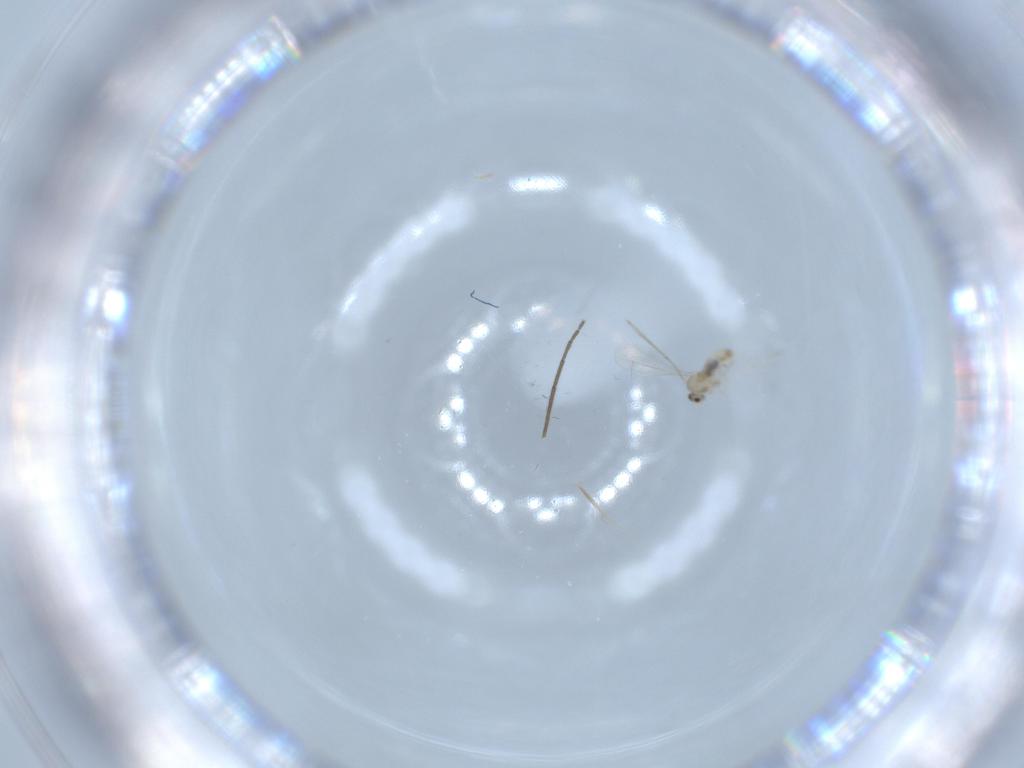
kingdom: Animalia
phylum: Arthropoda
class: Insecta
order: Diptera
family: Cecidomyiidae
